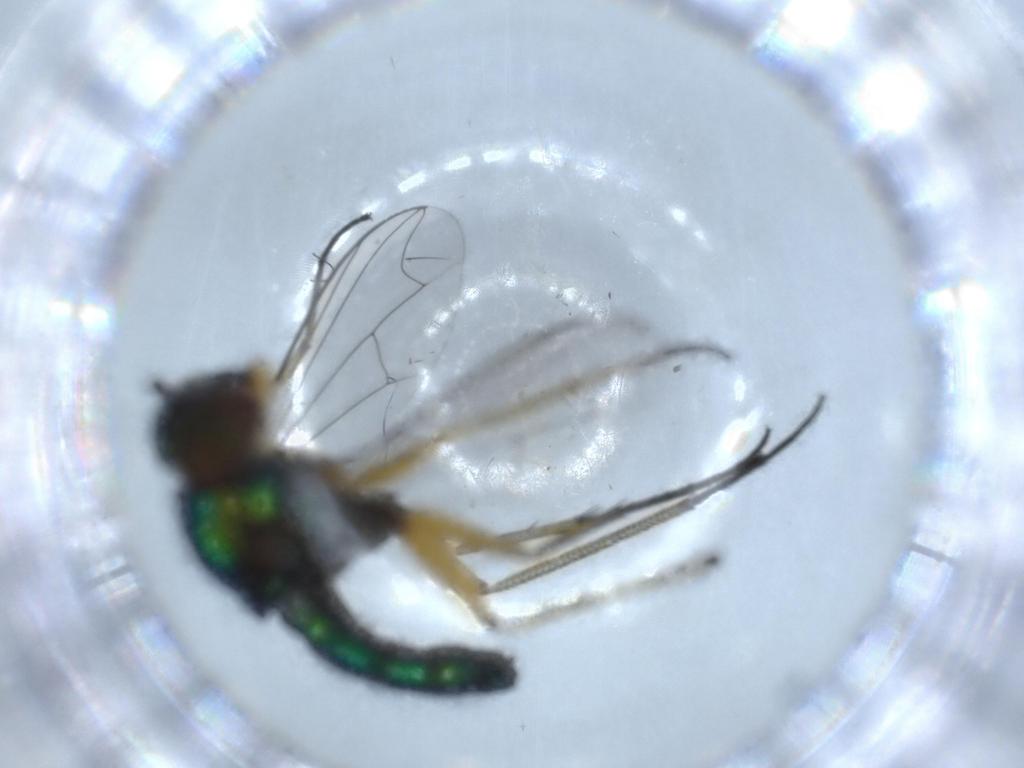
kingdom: Animalia
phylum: Arthropoda
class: Insecta
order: Diptera
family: Dolichopodidae
